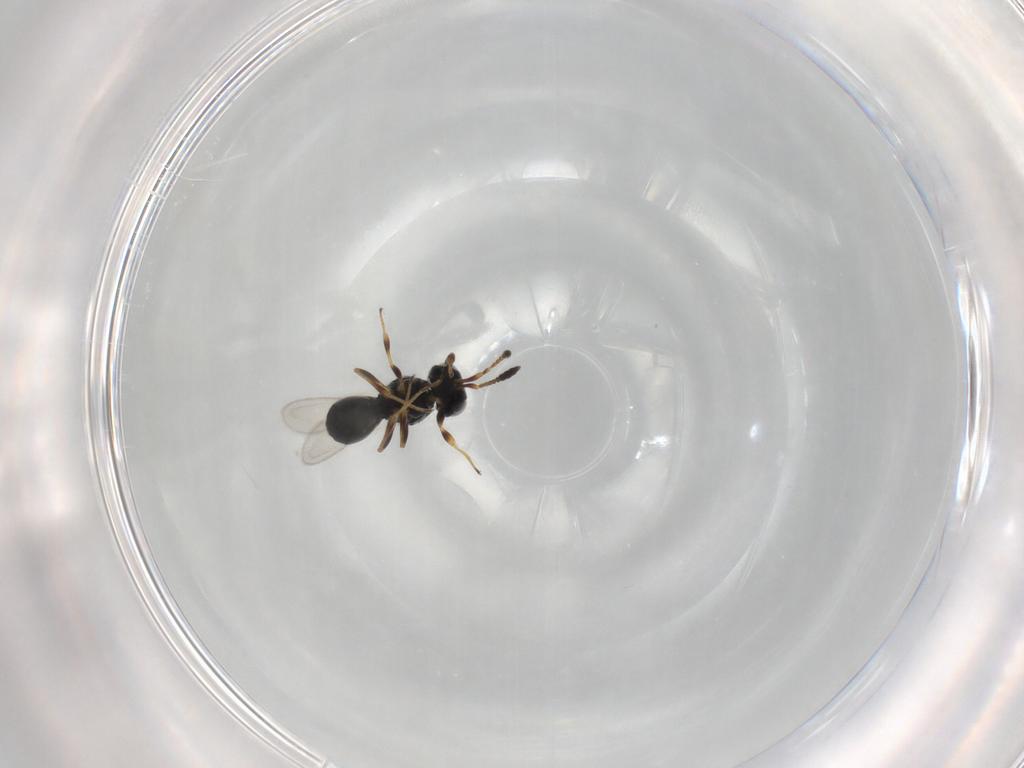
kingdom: Animalia
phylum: Arthropoda
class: Insecta
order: Hymenoptera
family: Scelionidae
